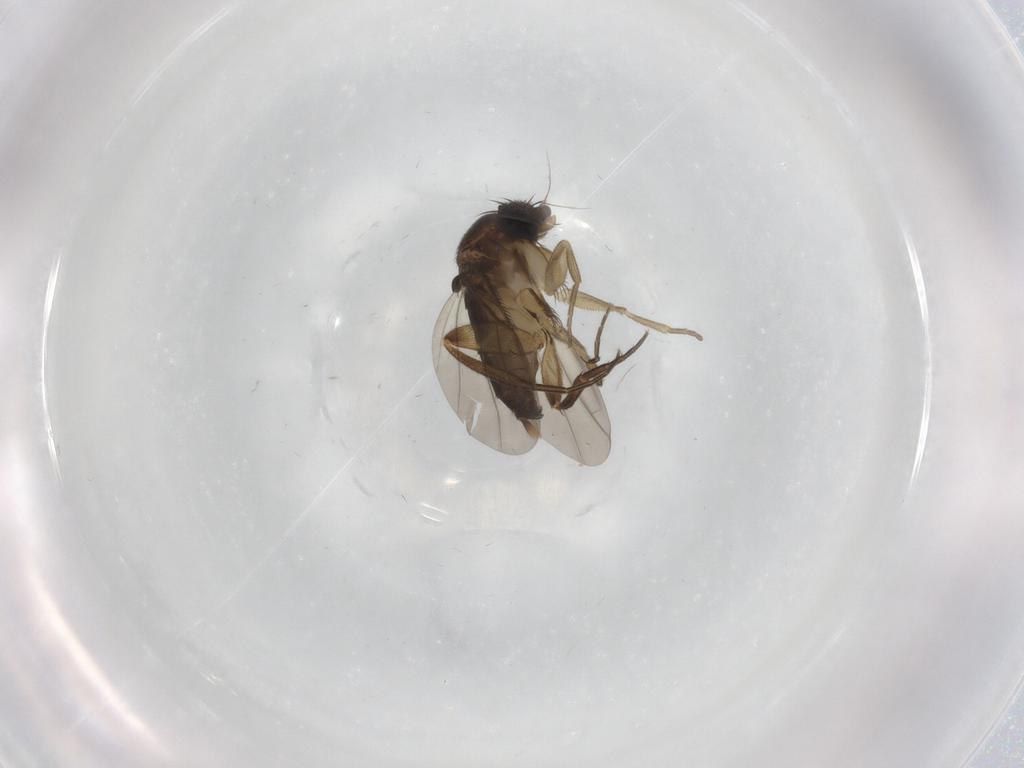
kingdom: Animalia
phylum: Arthropoda
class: Insecta
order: Diptera
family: Phoridae
